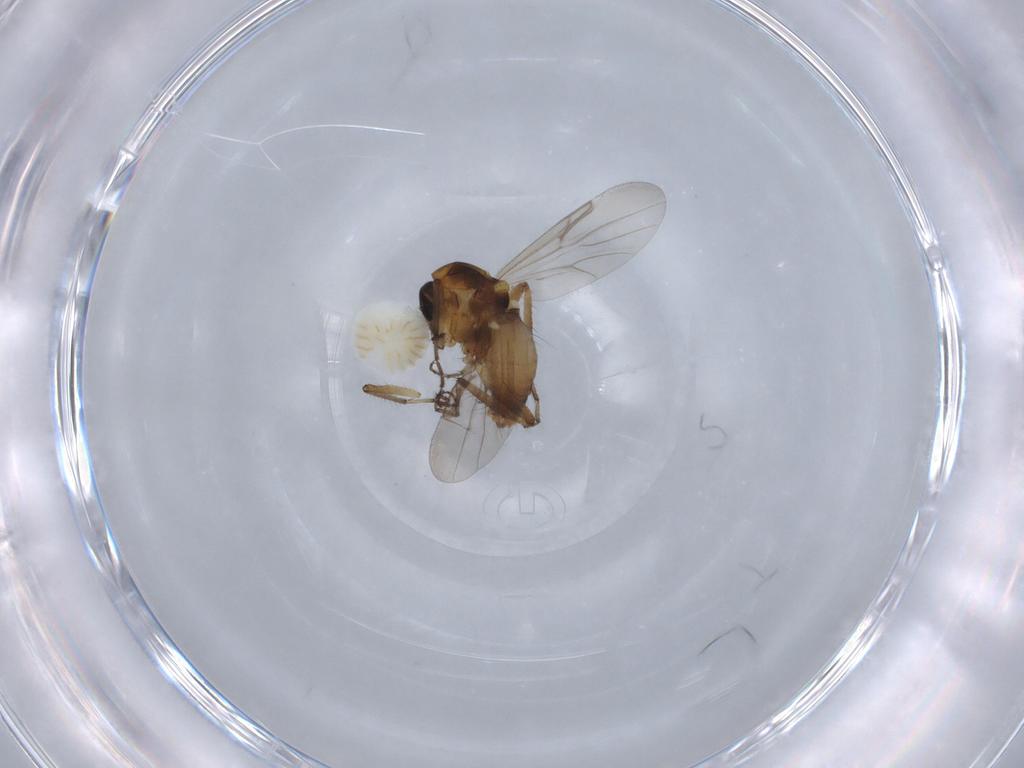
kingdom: Animalia
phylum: Arthropoda
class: Insecta
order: Diptera
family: Ceratopogonidae
